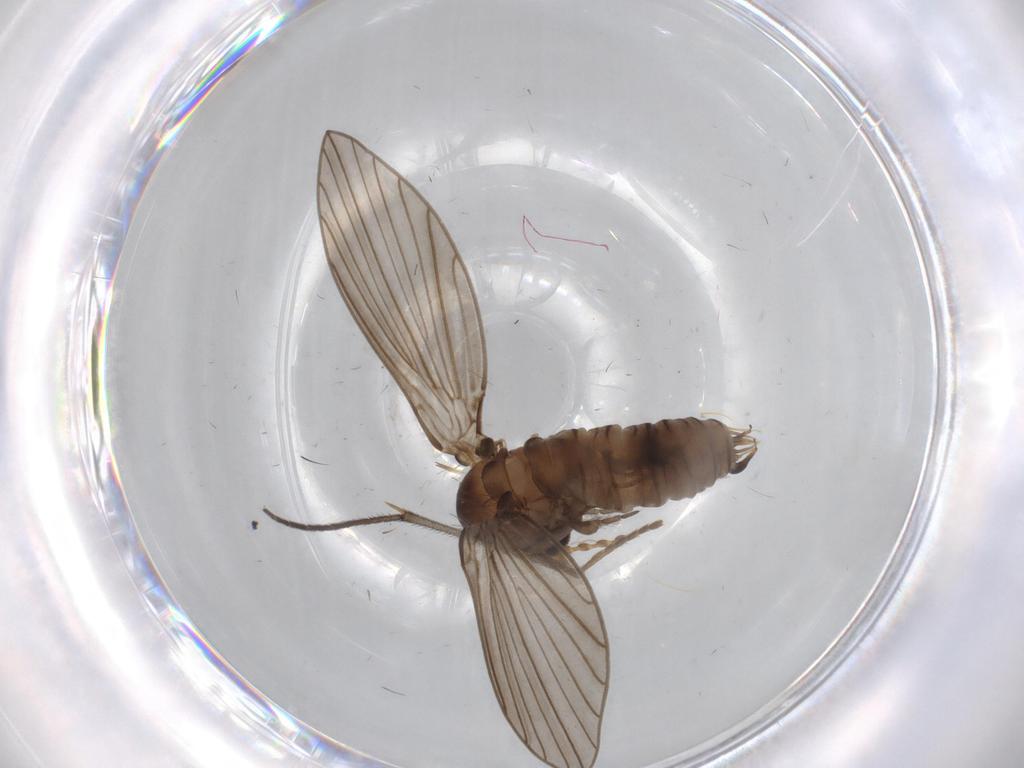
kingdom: Animalia
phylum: Arthropoda
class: Insecta
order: Diptera
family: Cecidomyiidae
